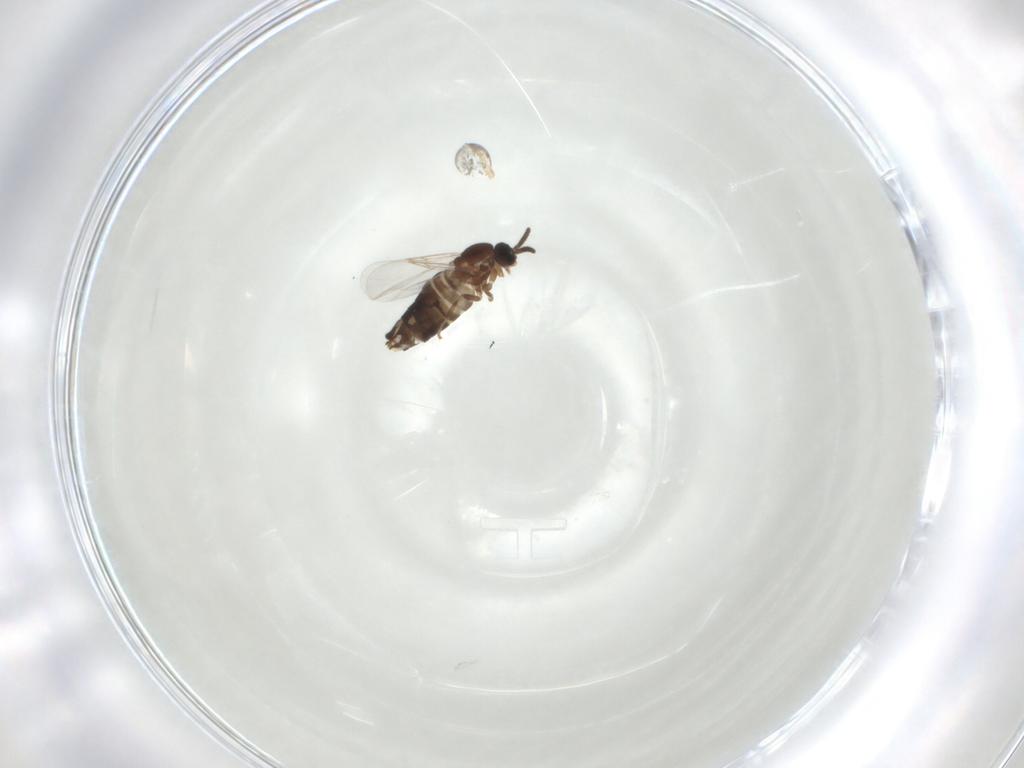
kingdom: Animalia
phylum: Arthropoda
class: Insecta
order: Diptera
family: Scatopsidae
